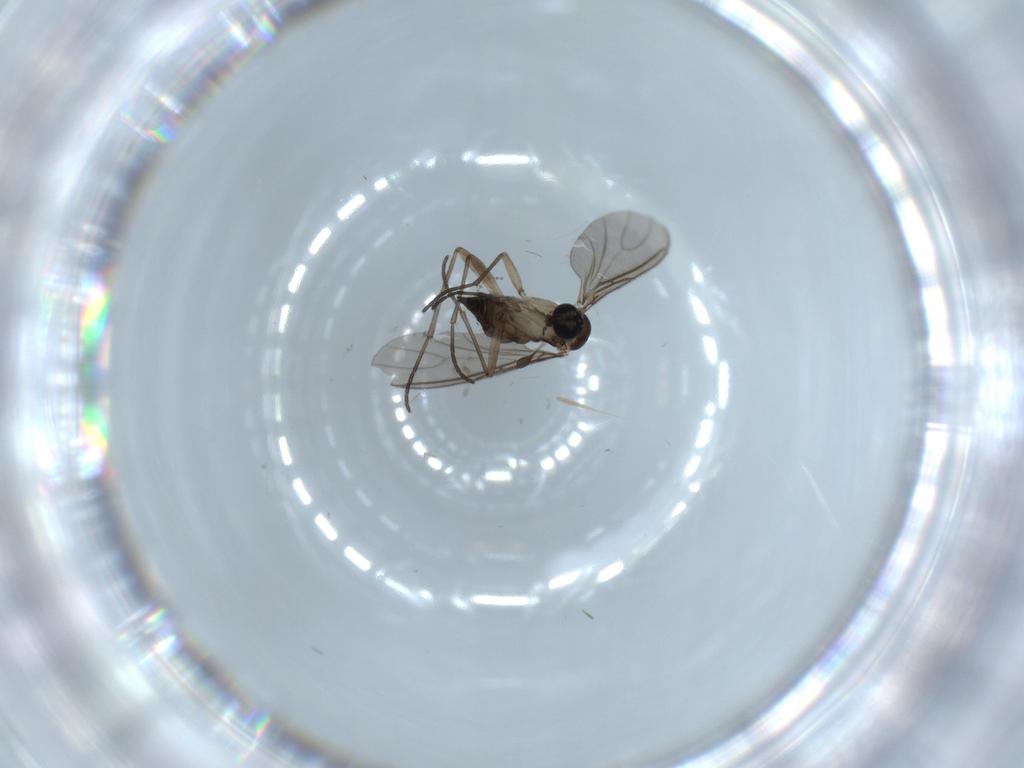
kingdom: Animalia
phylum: Arthropoda
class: Insecta
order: Diptera
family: Sciaridae
